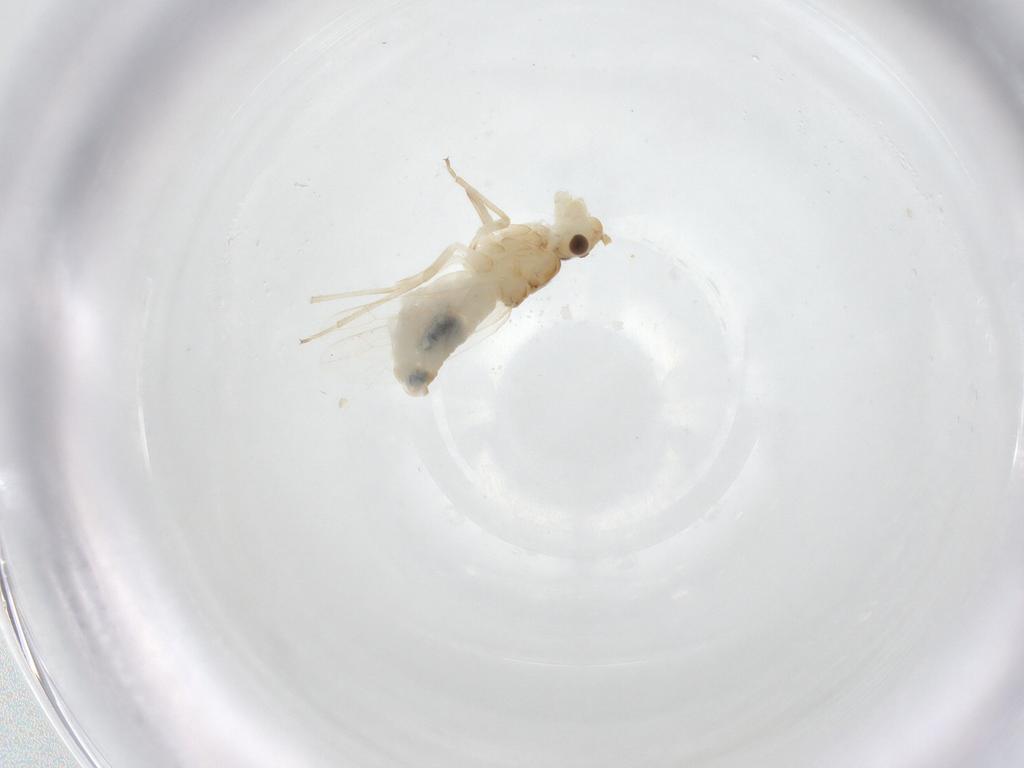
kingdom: Animalia
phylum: Arthropoda
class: Insecta
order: Psocodea
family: Caeciliusidae
